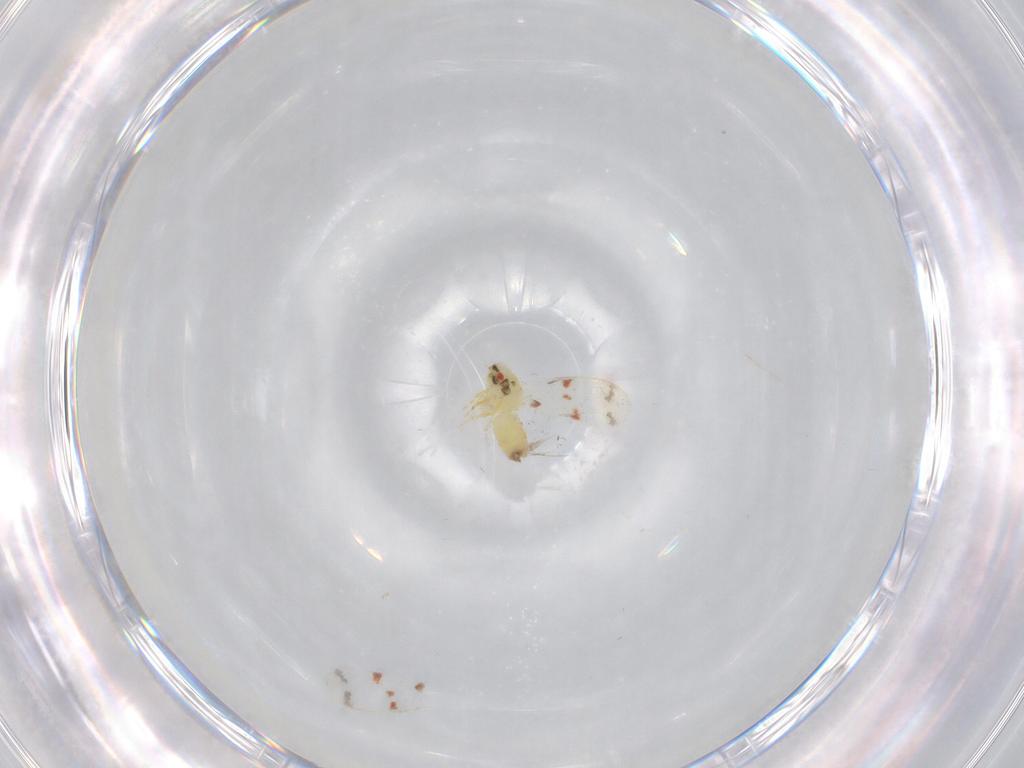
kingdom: Animalia
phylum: Arthropoda
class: Insecta
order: Hemiptera
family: Aleyrodidae
